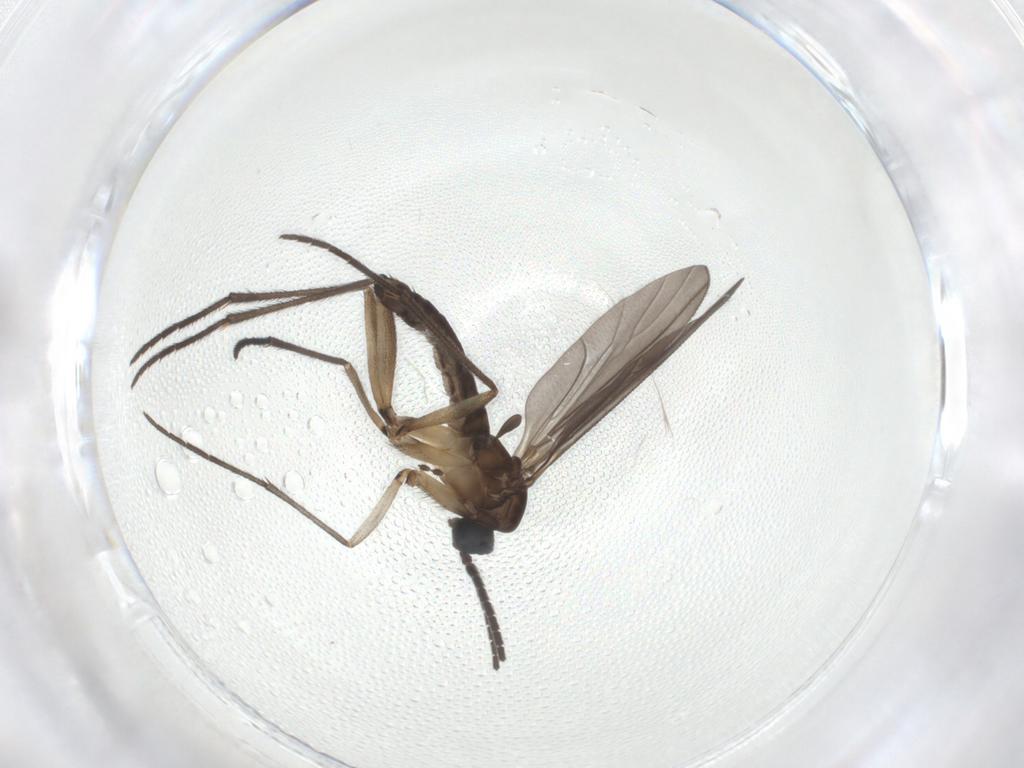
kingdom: Animalia
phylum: Arthropoda
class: Insecta
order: Diptera
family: Sciaridae
